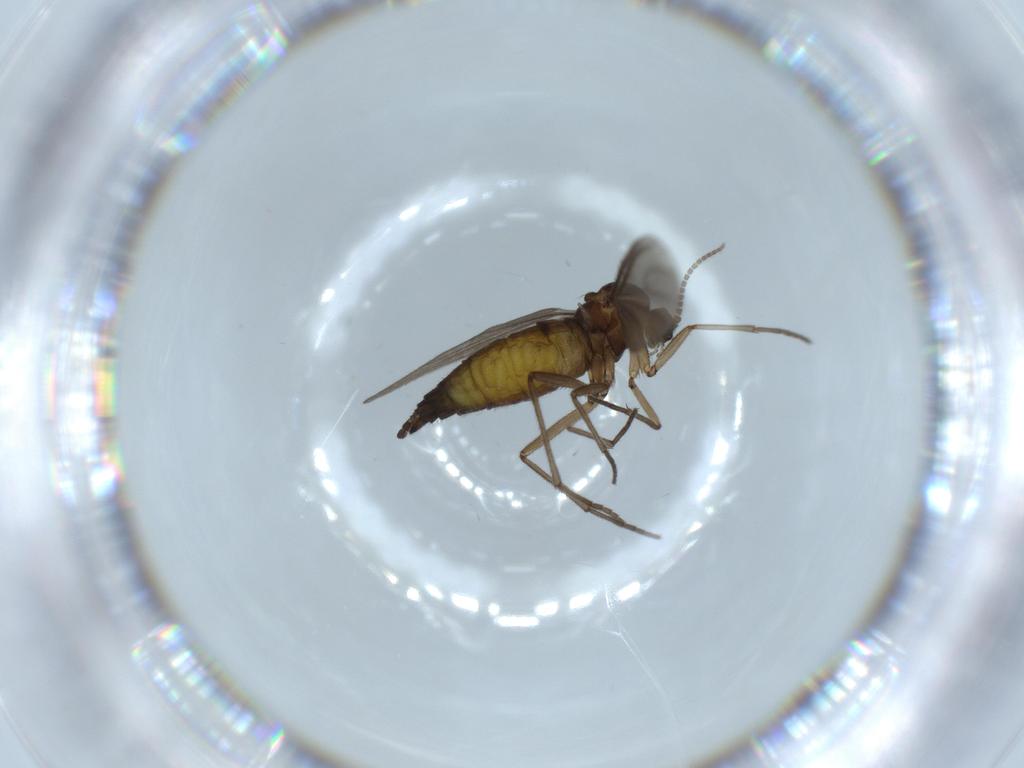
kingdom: Animalia
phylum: Arthropoda
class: Insecta
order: Diptera
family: Sciaridae
